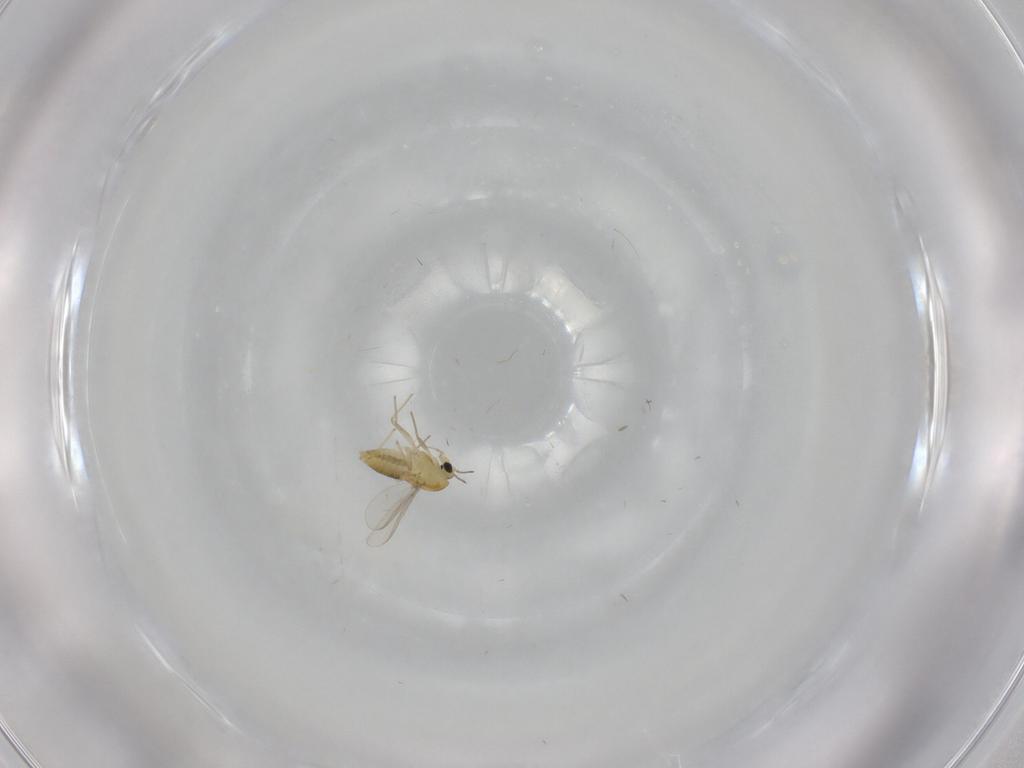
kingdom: Animalia
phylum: Arthropoda
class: Insecta
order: Diptera
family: Chironomidae
